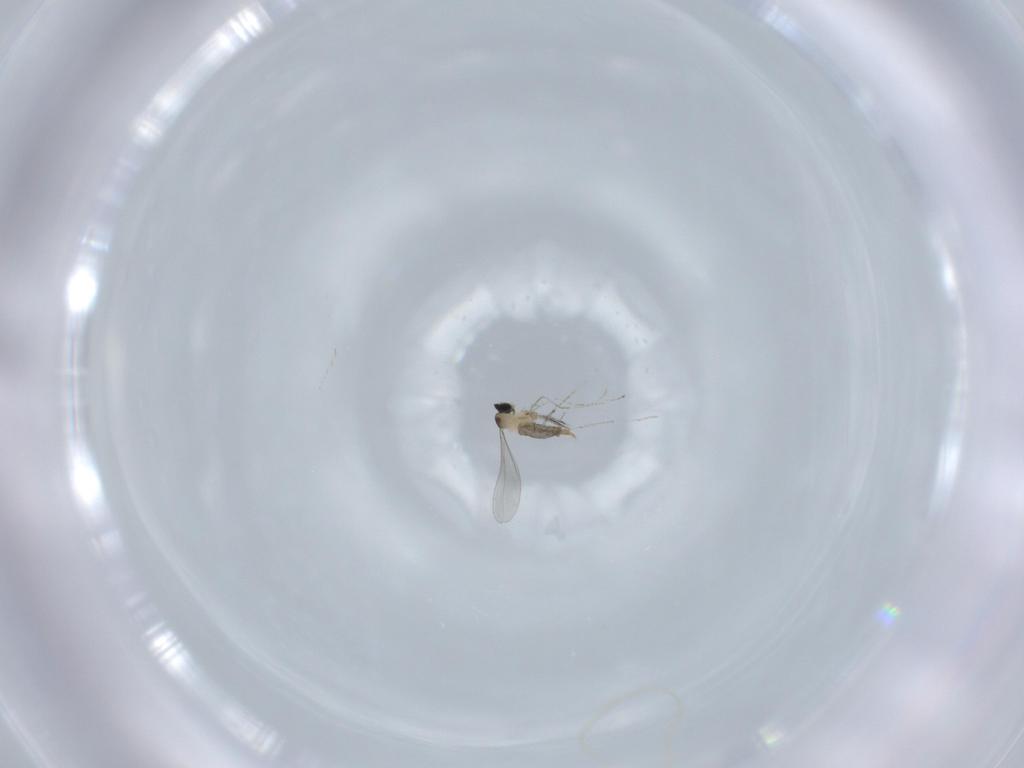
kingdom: Animalia
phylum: Arthropoda
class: Insecta
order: Diptera
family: Cecidomyiidae
